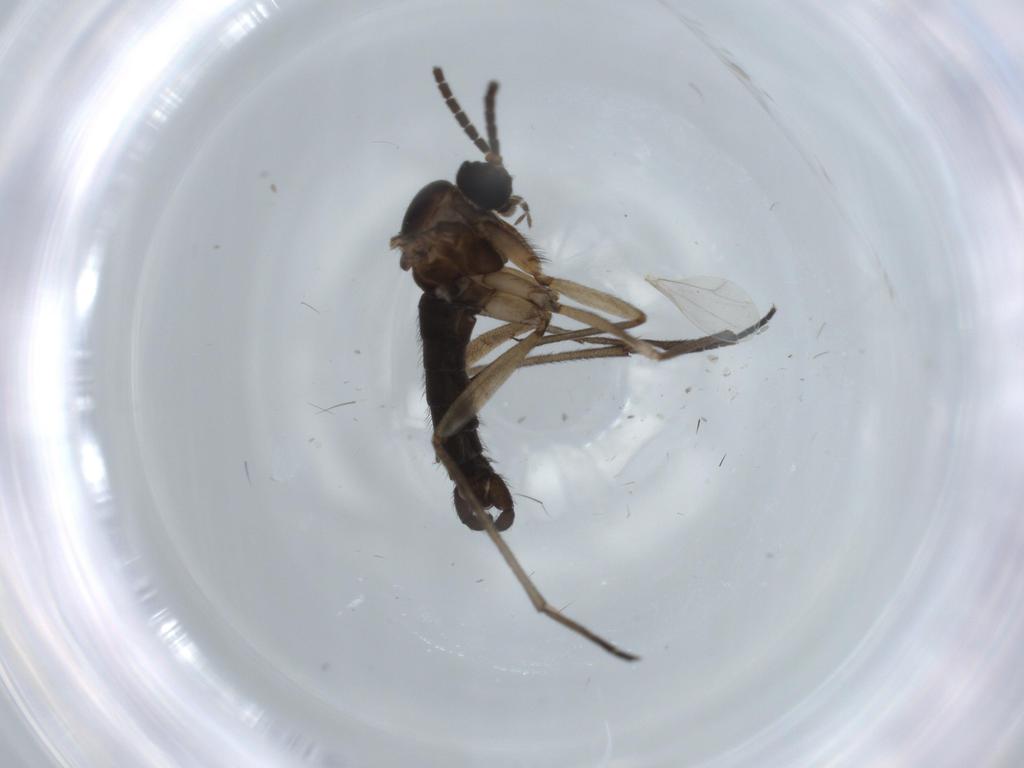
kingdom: Animalia
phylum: Arthropoda
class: Insecta
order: Diptera
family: Sciaridae
